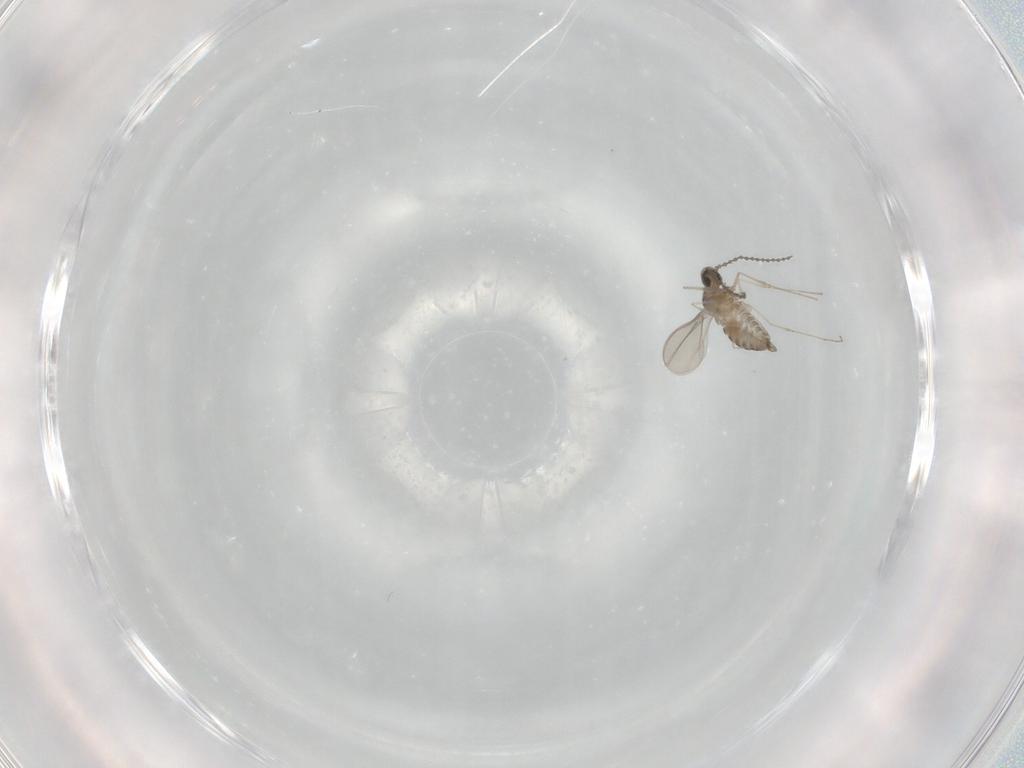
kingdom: Animalia
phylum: Arthropoda
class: Insecta
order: Diptera
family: Cecidomyiidae
